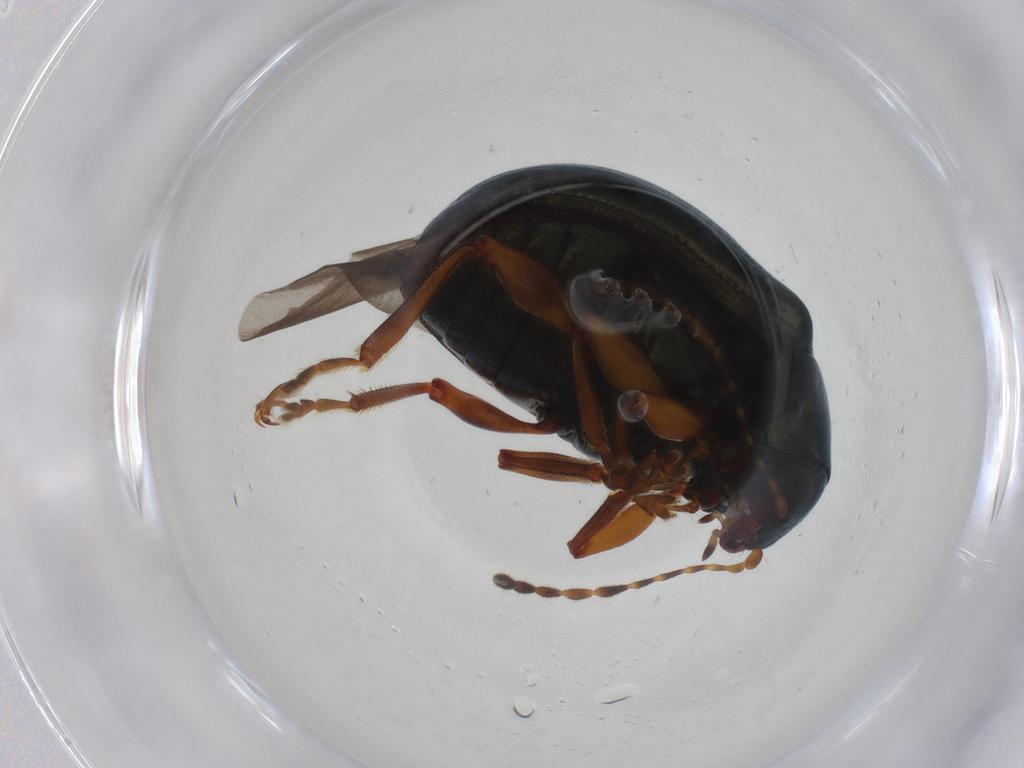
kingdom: Animalia
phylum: Arthropoda
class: Insecta
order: Coleoptera
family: Chrysomelidae
